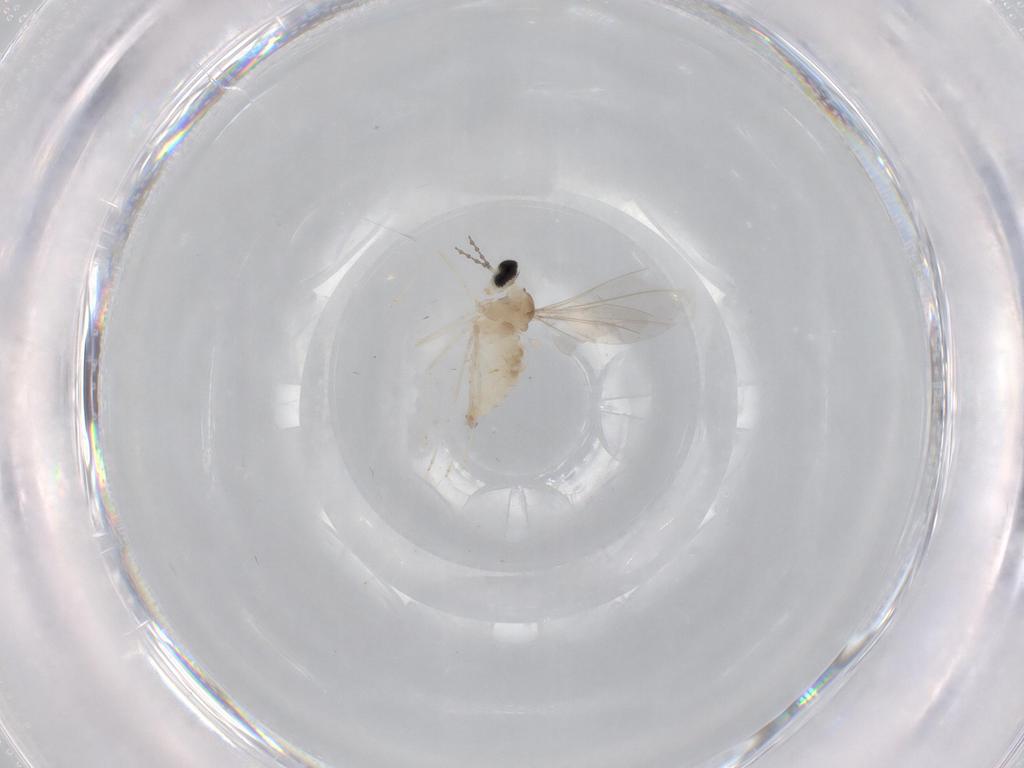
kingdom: Animalia
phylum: Arthropoda
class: Insecta
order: Diptera
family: Cecidomyiidae
